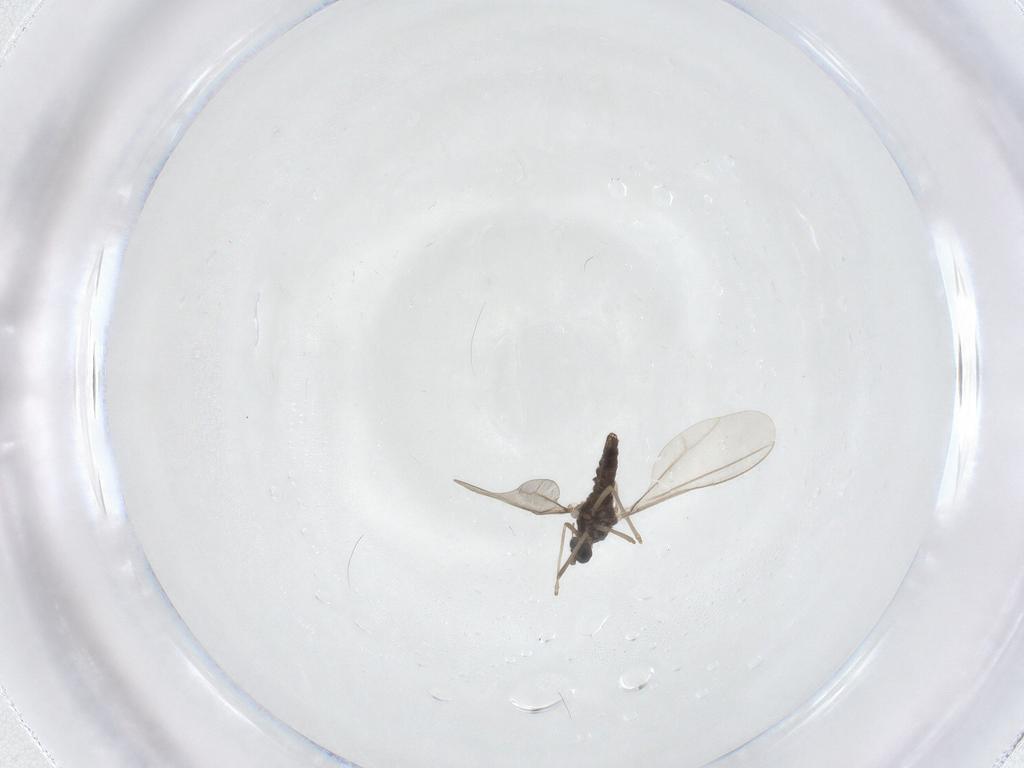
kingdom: Animalia
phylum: Arthropoda
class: Insecta
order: Diptera
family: Cecidomyiidae
